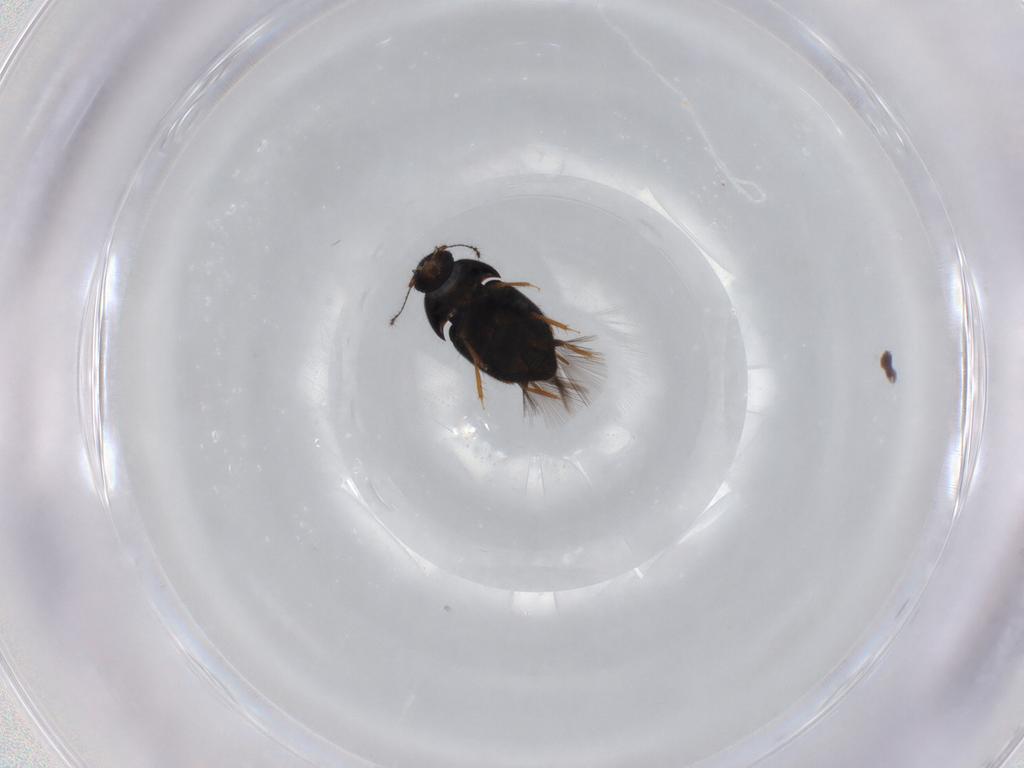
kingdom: Animalia
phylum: Arthropoda
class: Insecta
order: Coleoptera
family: Ptiliidae
